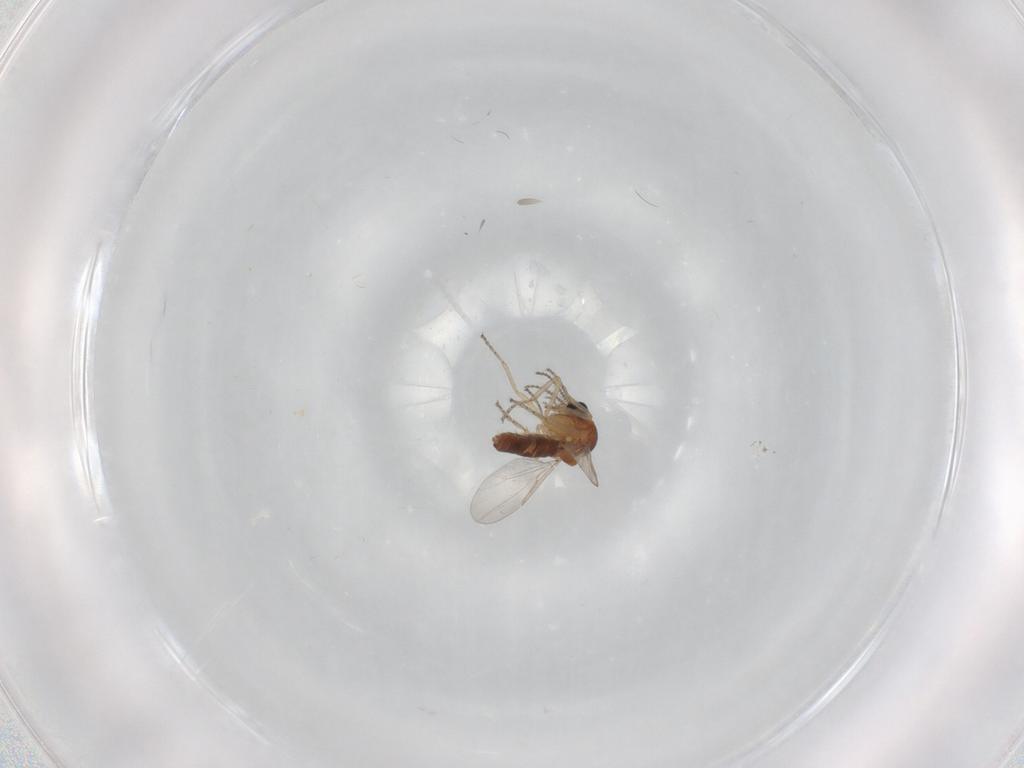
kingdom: Animalia
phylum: Arthropoda
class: Insecta
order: Diptera
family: Ceratopogonidae
